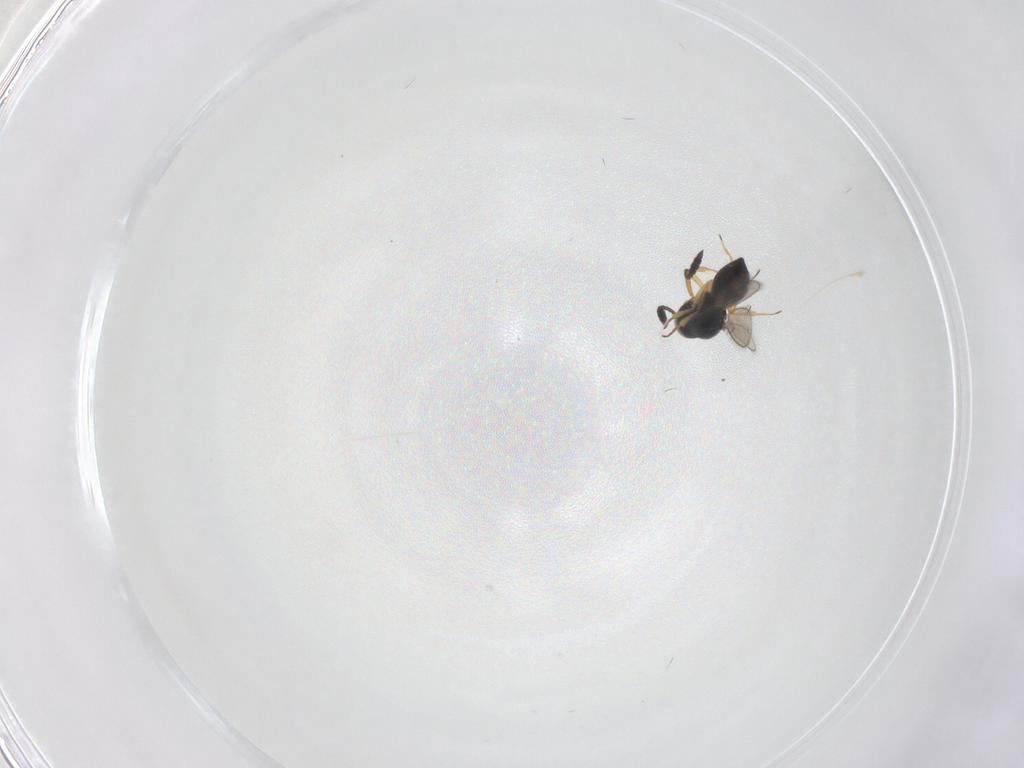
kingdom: Animalia
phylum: Arthropoda
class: Insecta
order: Hymenoptera
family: Scelionidae
